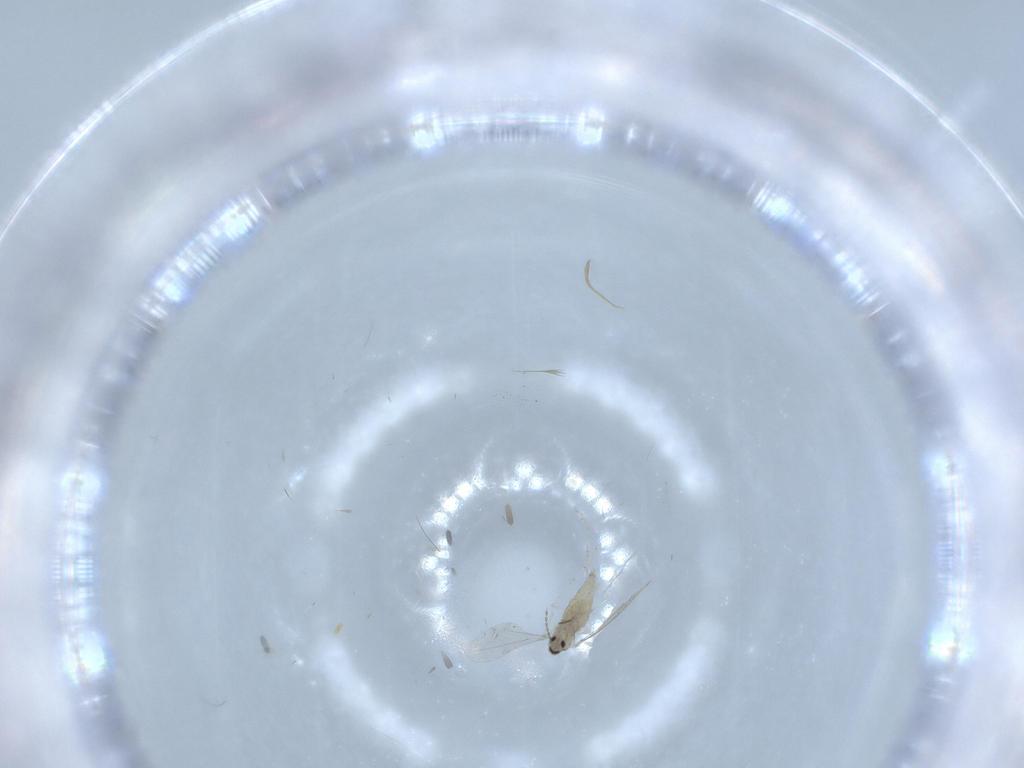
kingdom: Animalia
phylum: Arthropoda
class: Insecta
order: Diptera
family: Cecidomyiidae
